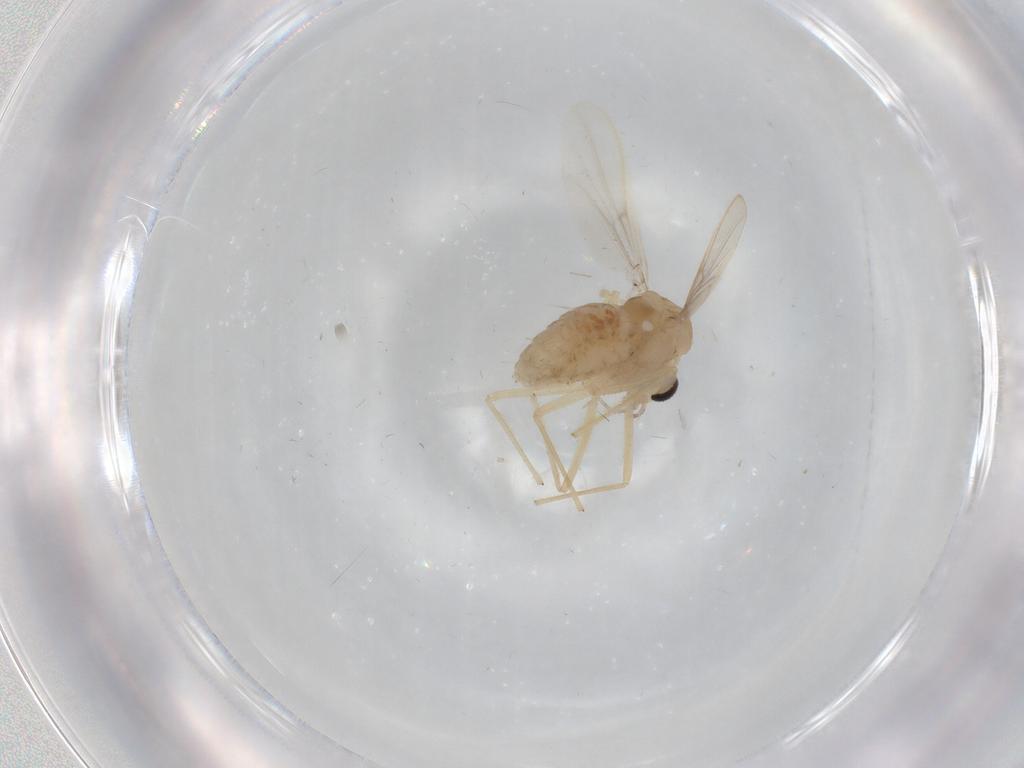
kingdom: Animalia
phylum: Arthropoda
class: Insecta
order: Diptera
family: Chironomidae
